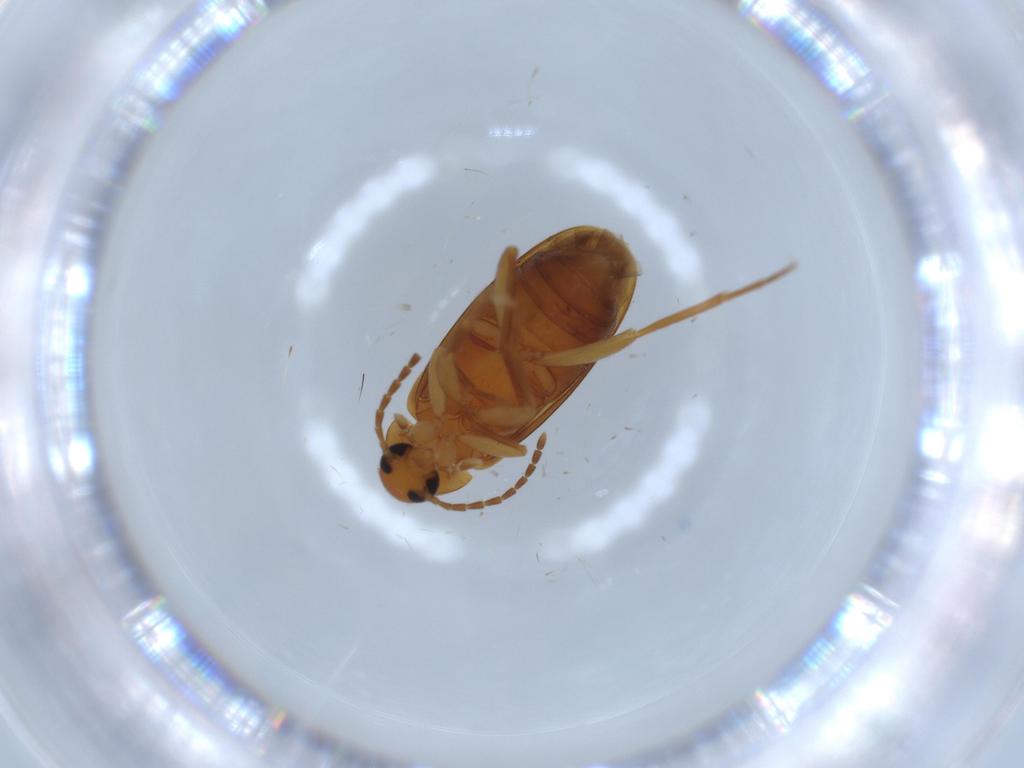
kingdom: Animalia
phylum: Arthropoda
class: Insecta
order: Coleoptera
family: Scraptiidae
